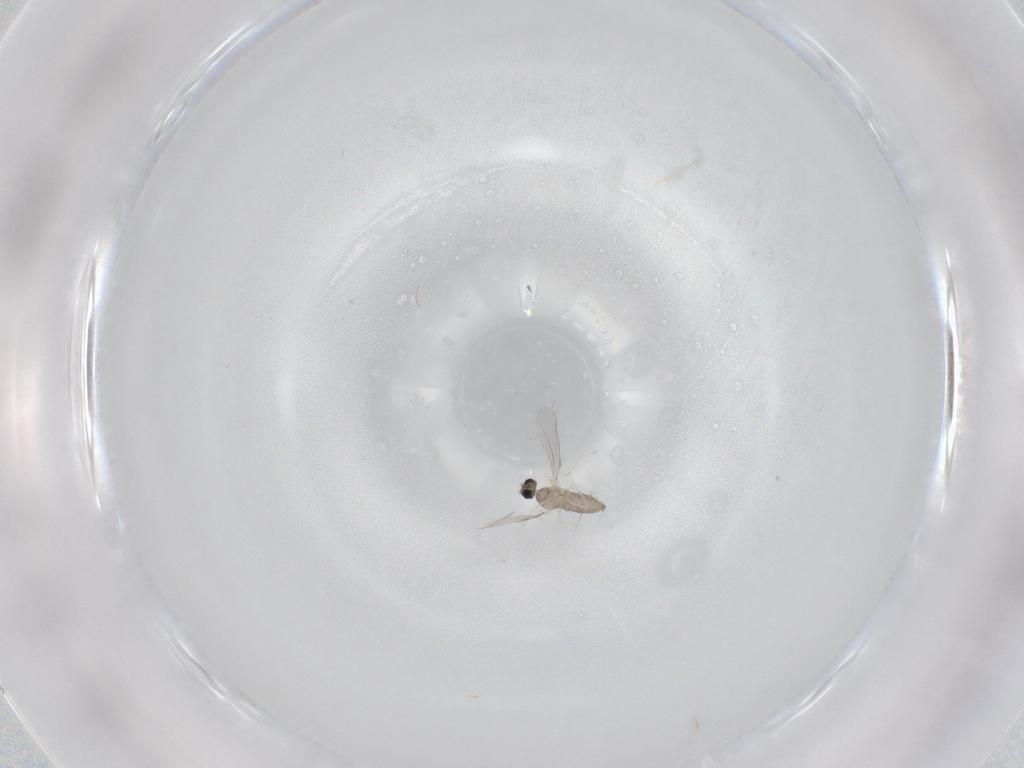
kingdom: Animalia
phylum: Arthropoda
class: Insecta
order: Diptera
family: Cecidomyiidae
